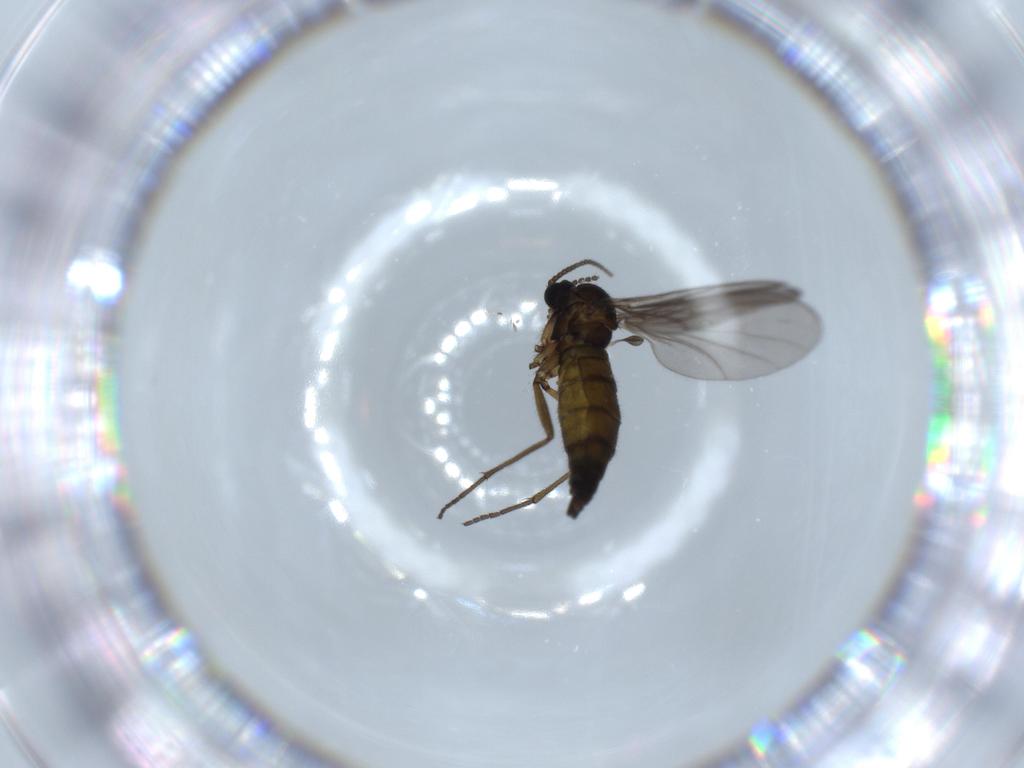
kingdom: Animalia
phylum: Arthropoda
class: Insecta
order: Diptera
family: Sciaridae
